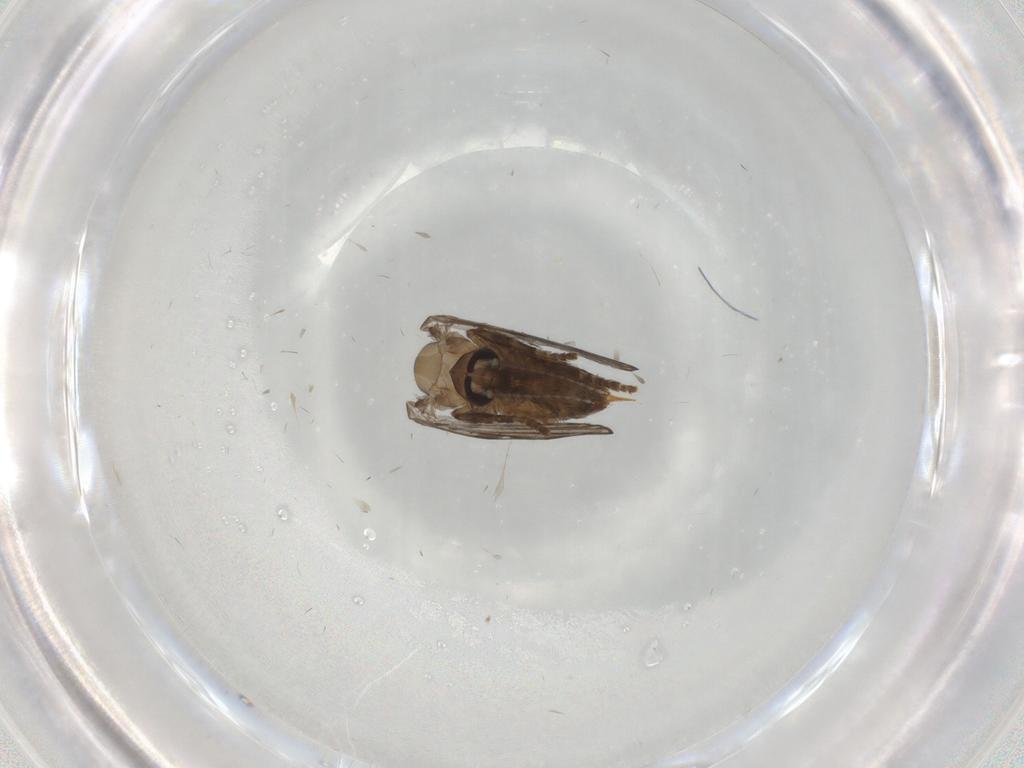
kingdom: Animalia
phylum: Arthropoda
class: Insecta
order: Diptera
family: Psychodidae
